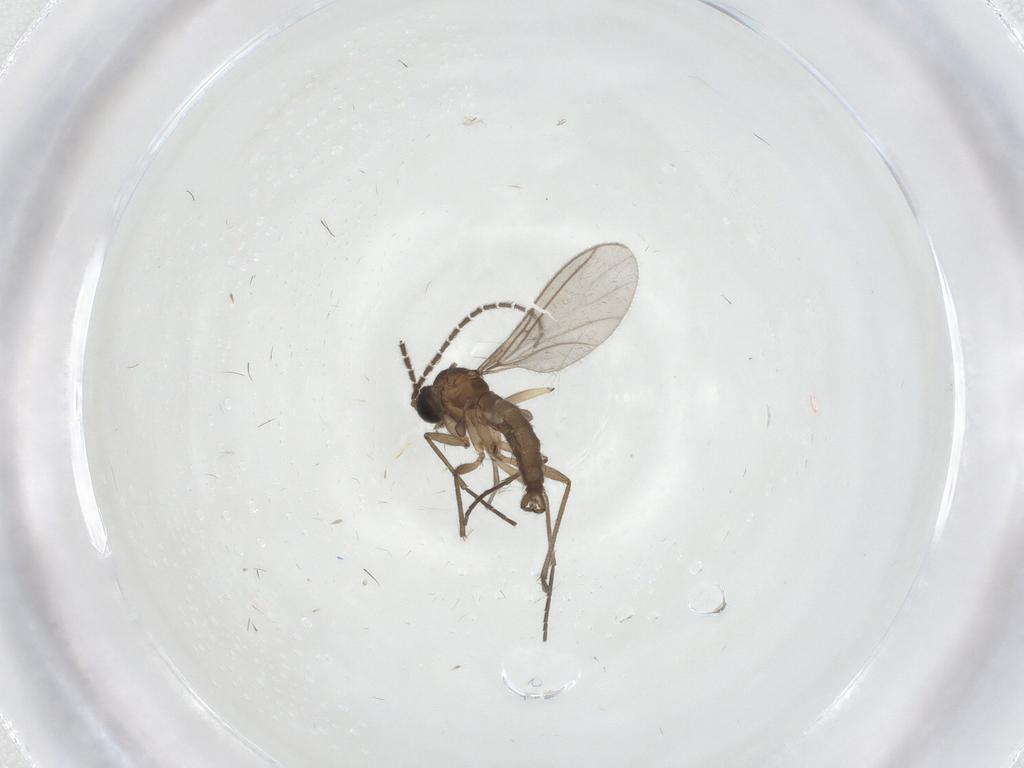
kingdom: Animalia
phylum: Arthropoda
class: Insecta
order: Diptera
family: Sciaridae
